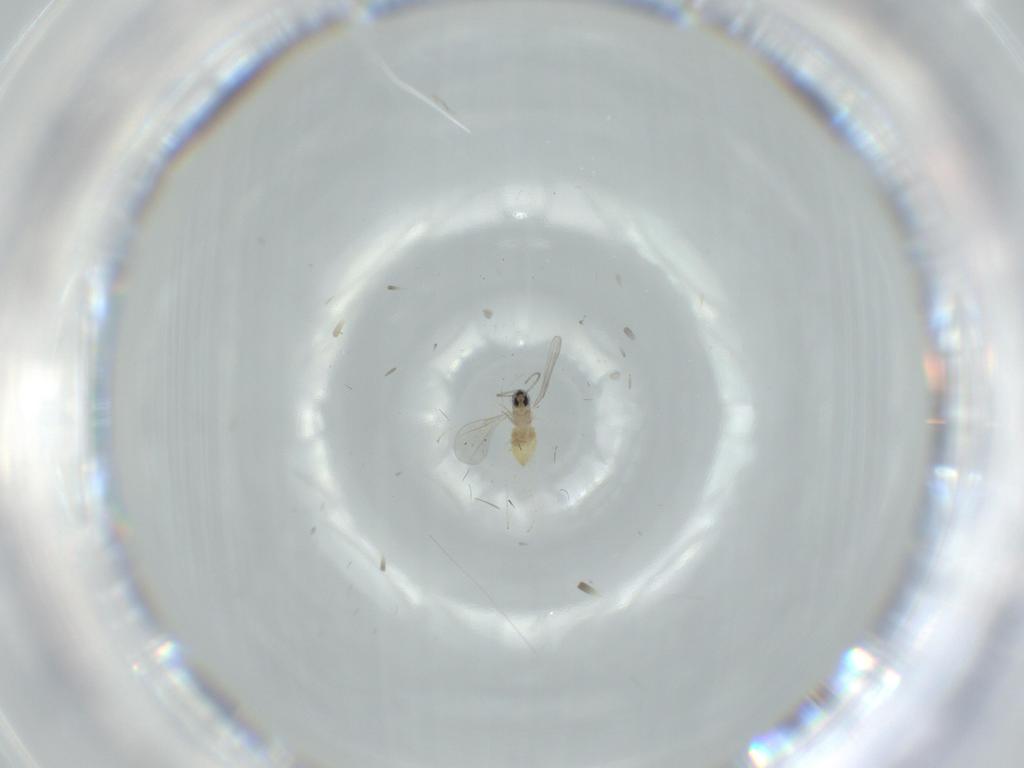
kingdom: Animalia
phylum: Arthropoda
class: Insecta
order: Diptera
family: Cecidomyiidae
